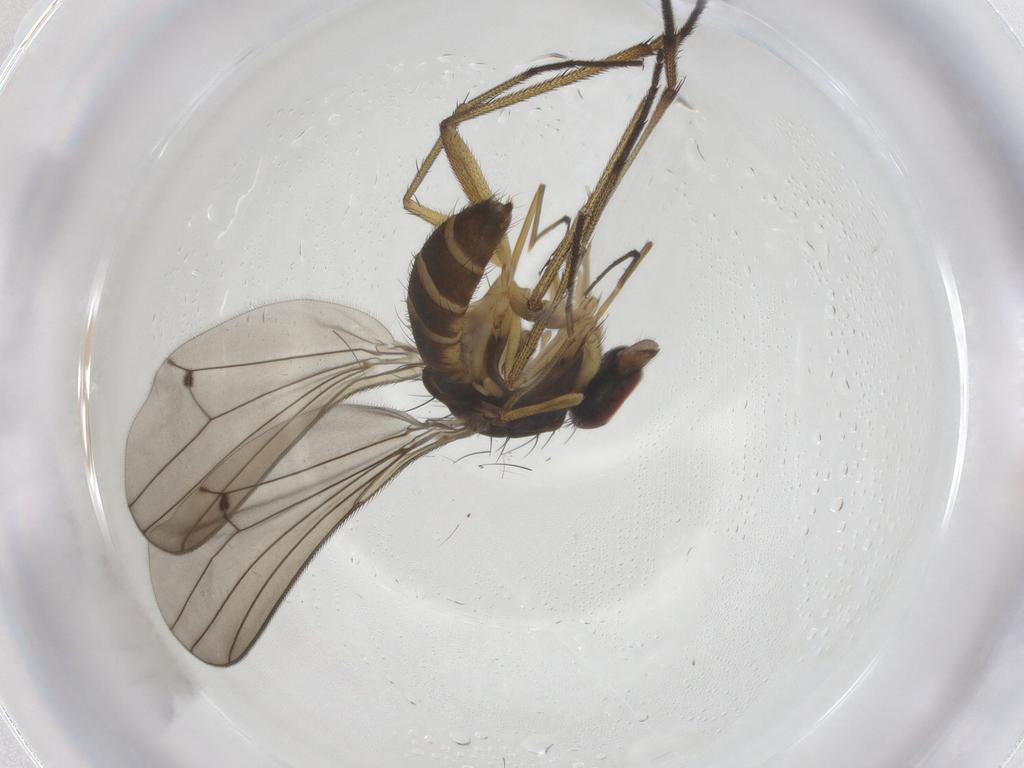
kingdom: Animalia
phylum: Arthropoda
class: Insecta
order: Diptera
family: Dolichopodidae
